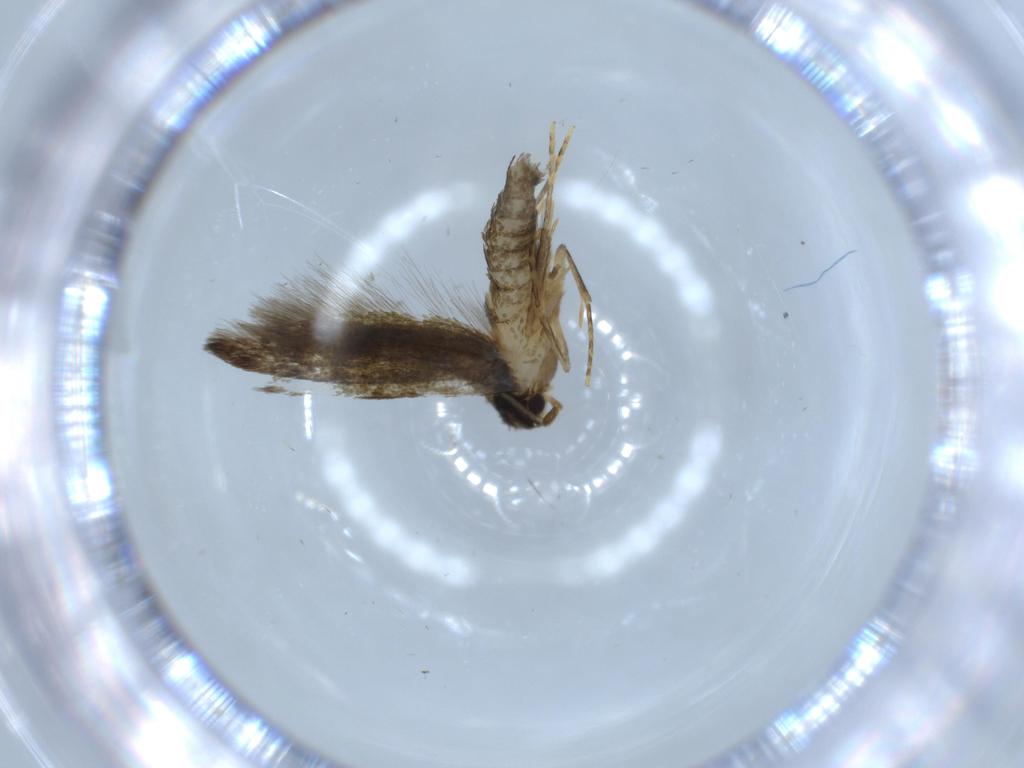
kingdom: Animalia
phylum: Arthropoda
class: Insecta
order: Lepidoptera
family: Tineidae
